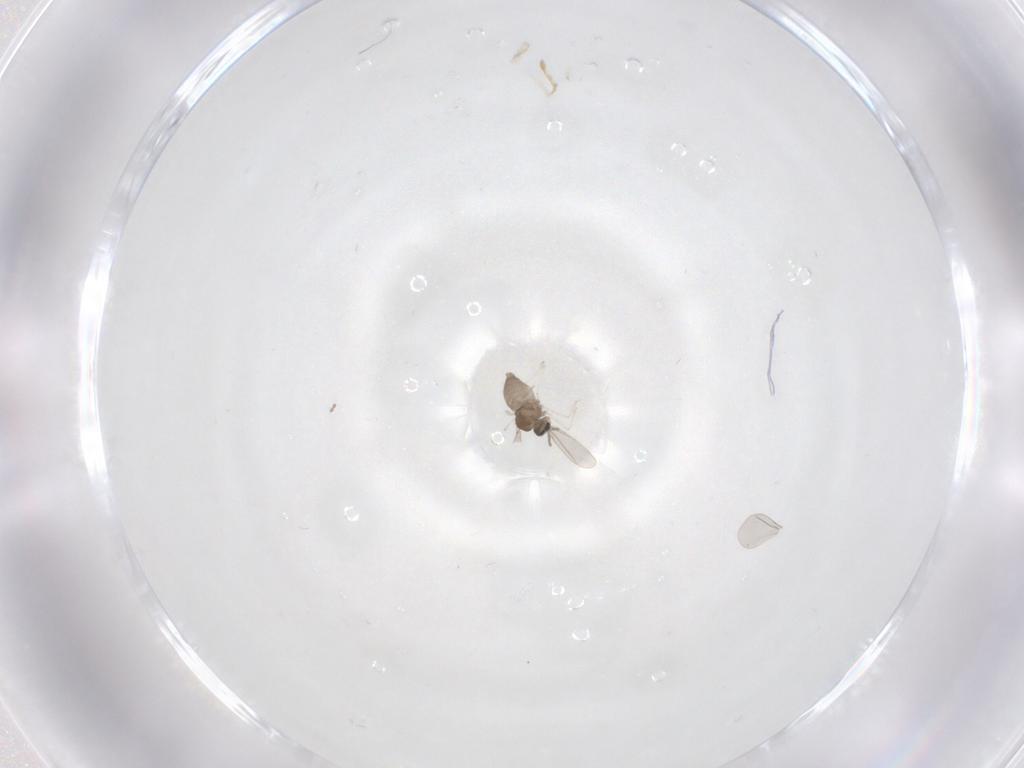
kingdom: Animalia
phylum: Arthropoda
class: Insecta
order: Diptera
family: Cecidomyiidae
